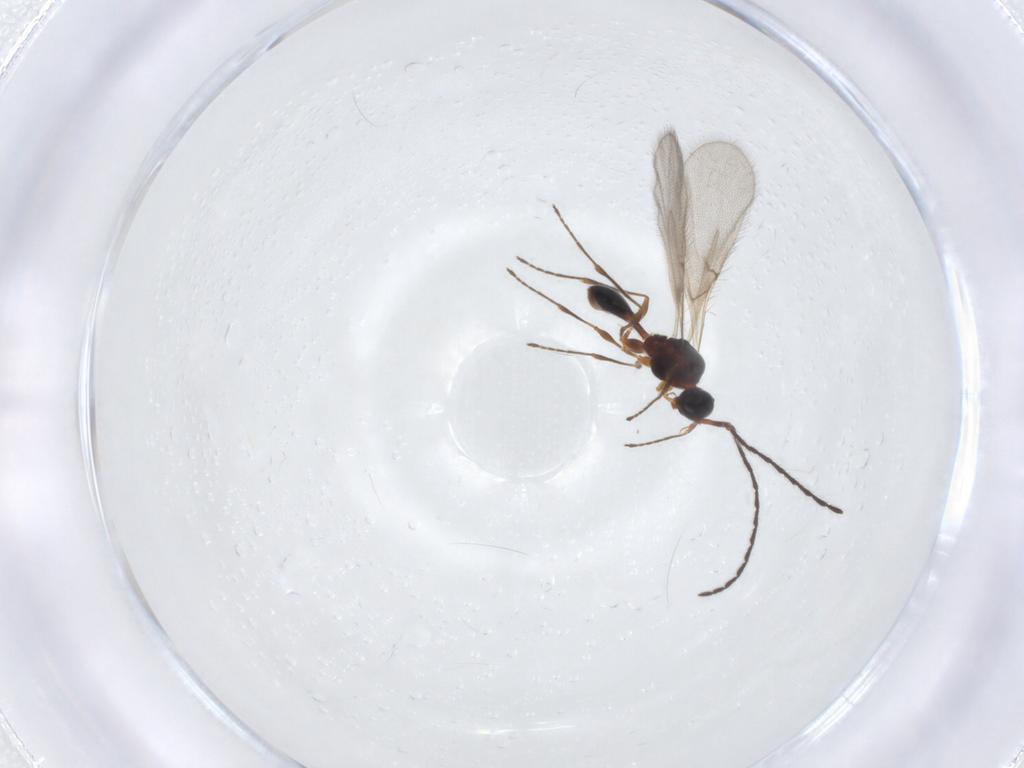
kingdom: Animalia
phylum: Arthropoda
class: Insecta
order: Hymenoptera
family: Diapriidae
